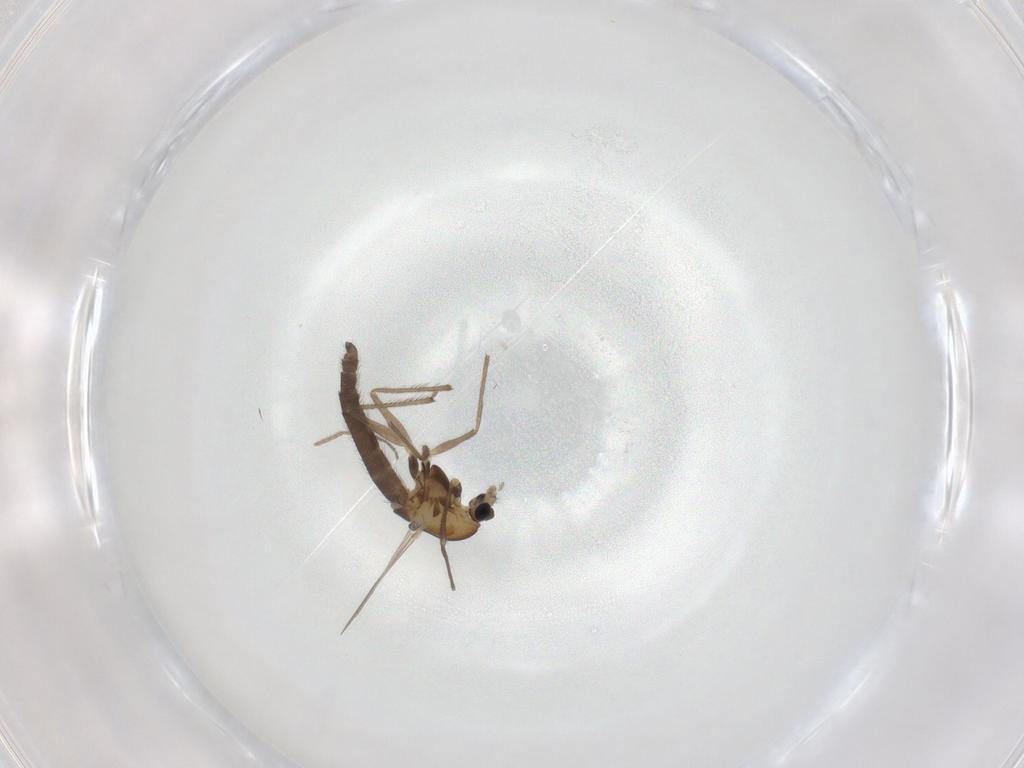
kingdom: Animalia
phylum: Arthropoda
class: Insecta
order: Diptera
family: Chironomidae
